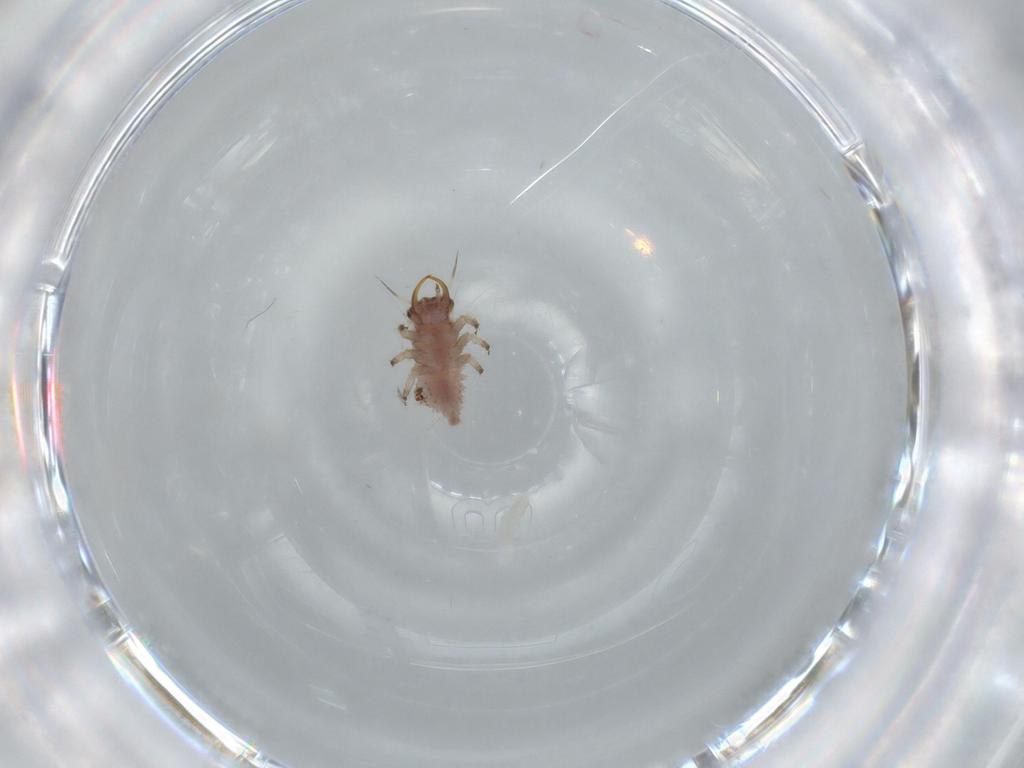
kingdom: Animalia
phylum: Arthropoda
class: Insecta
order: Neuroptera
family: Chrysopidae
